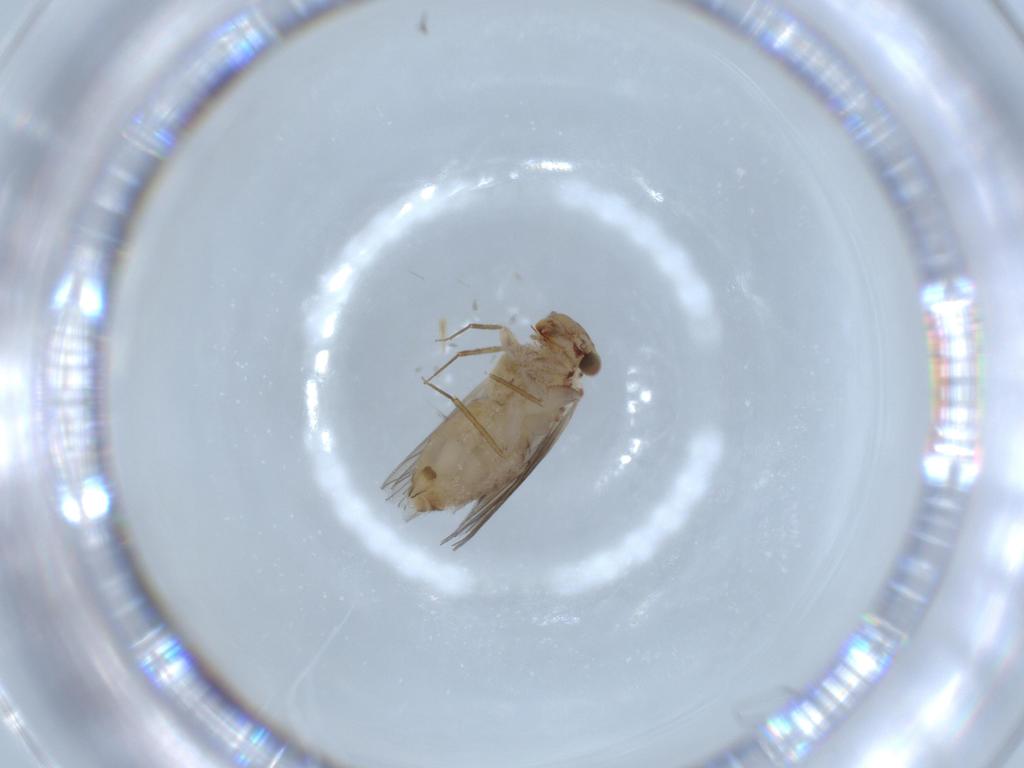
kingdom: Animalia
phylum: Arthropoda
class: Insecta
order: Psocodea
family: Lepidopsocidae
